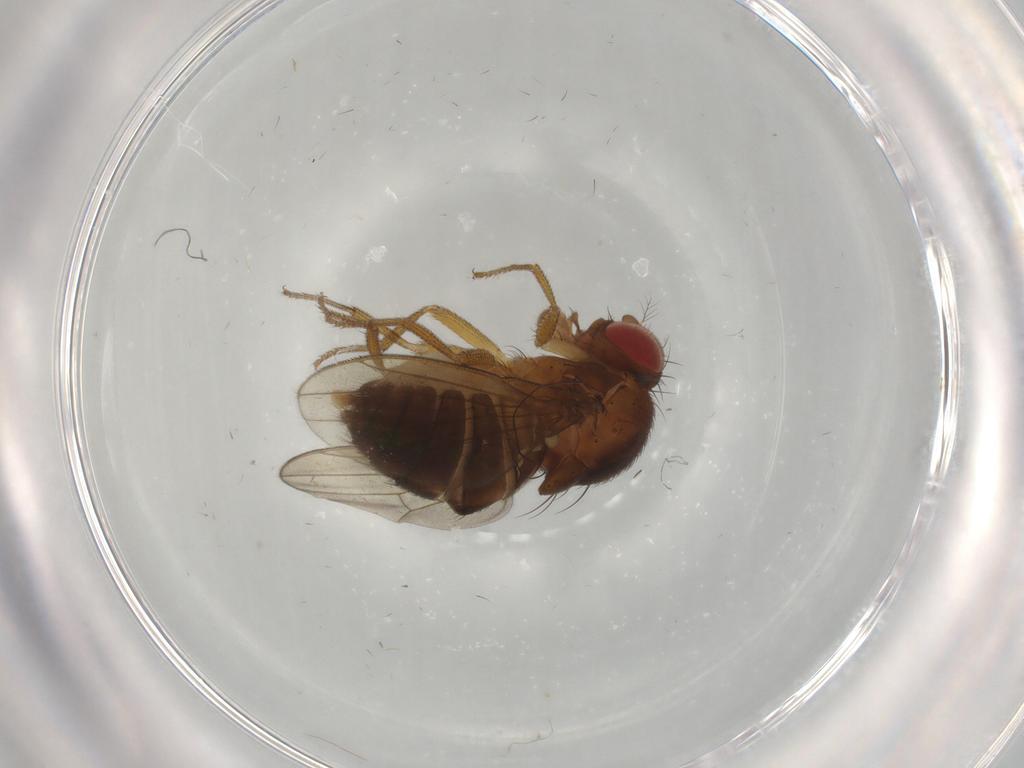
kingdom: Animalia
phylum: Arthropoda
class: Insecta
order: Diptera
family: Drosophilidae
